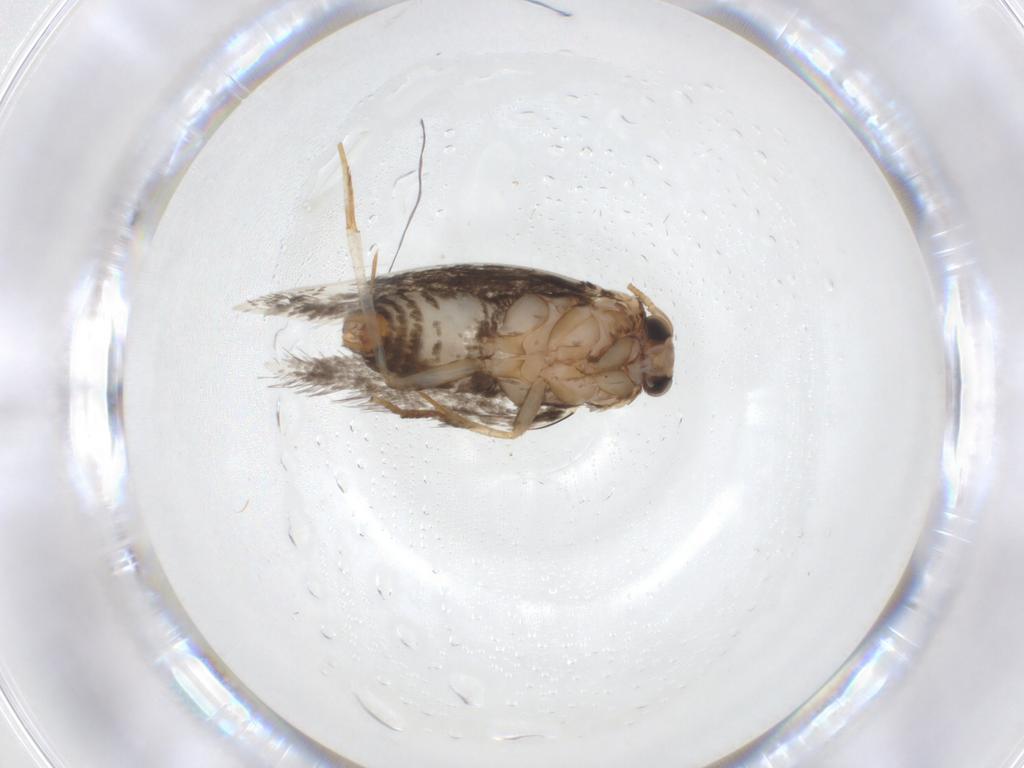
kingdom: Animalia
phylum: Arthropoda
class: Insecta
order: Lepidoptera
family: Nepticulidae
